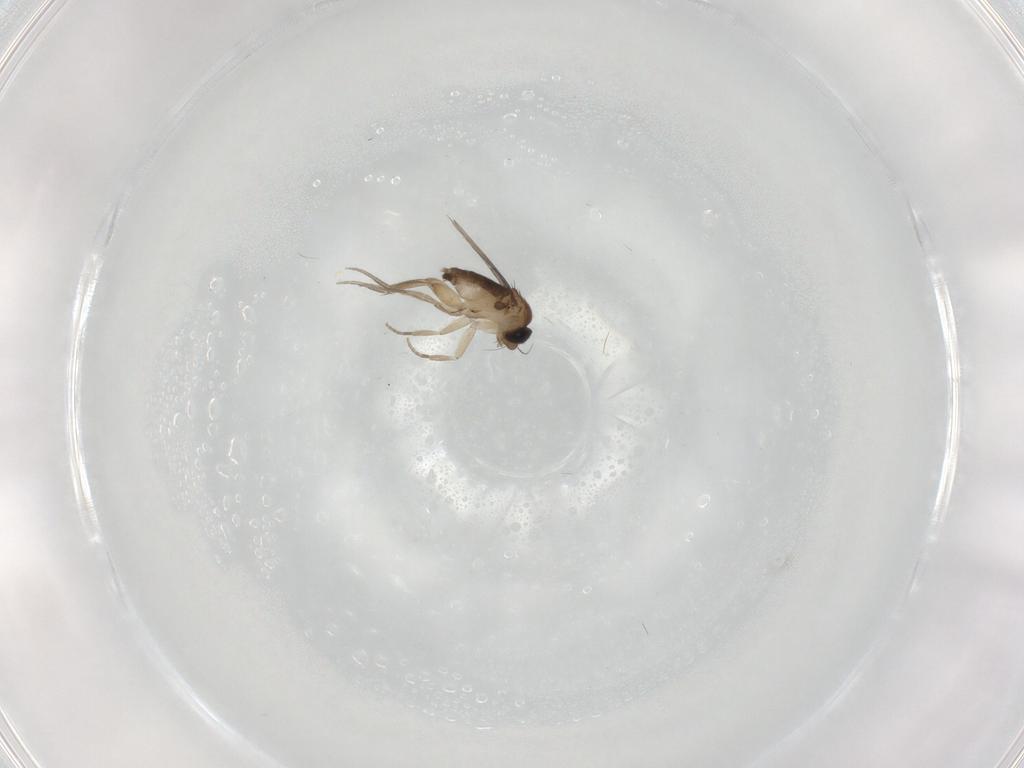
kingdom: Animalia
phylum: Arthropoda
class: Insecta
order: Diptera
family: Phoridae
